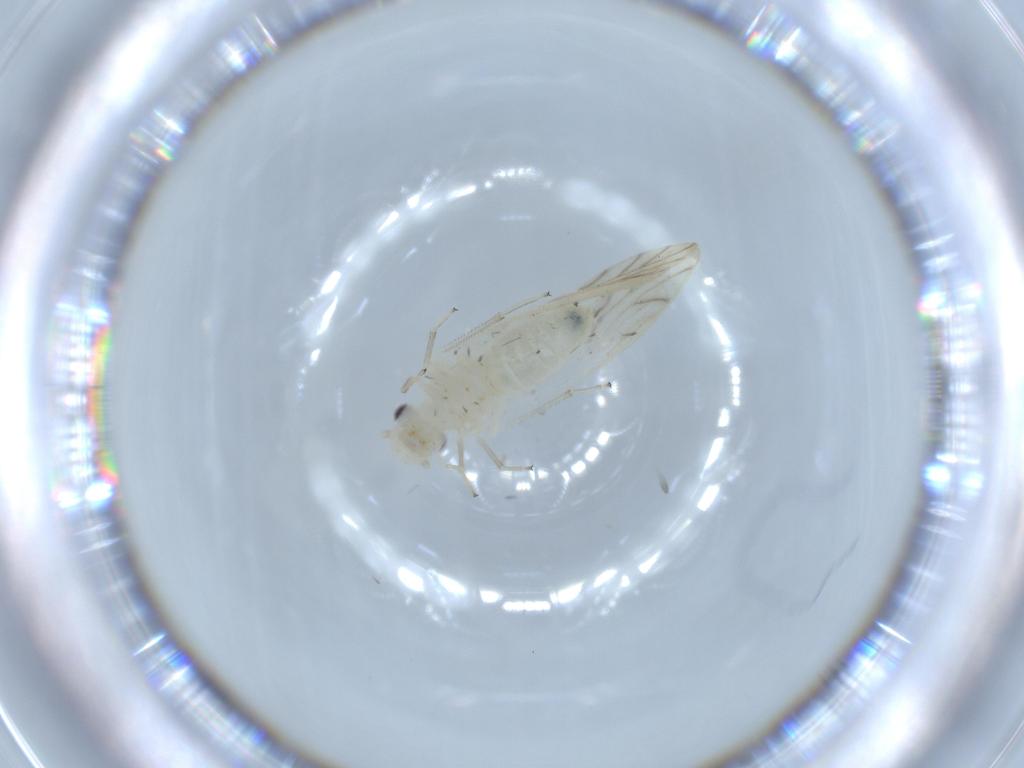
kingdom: Animalia
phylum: Arthropoda
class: Insecta
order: Psocodea
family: Caeciliusidae
